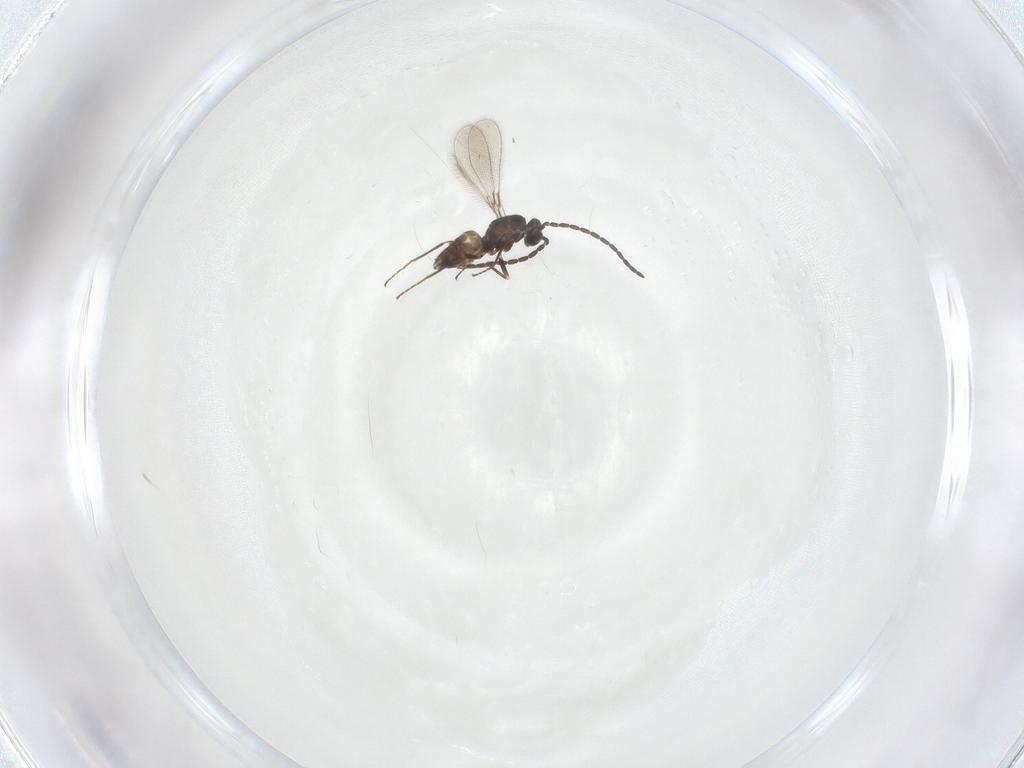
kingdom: Animalia
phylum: Arthropoda
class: Insecta
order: Hymenoptera
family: Mymaridae
